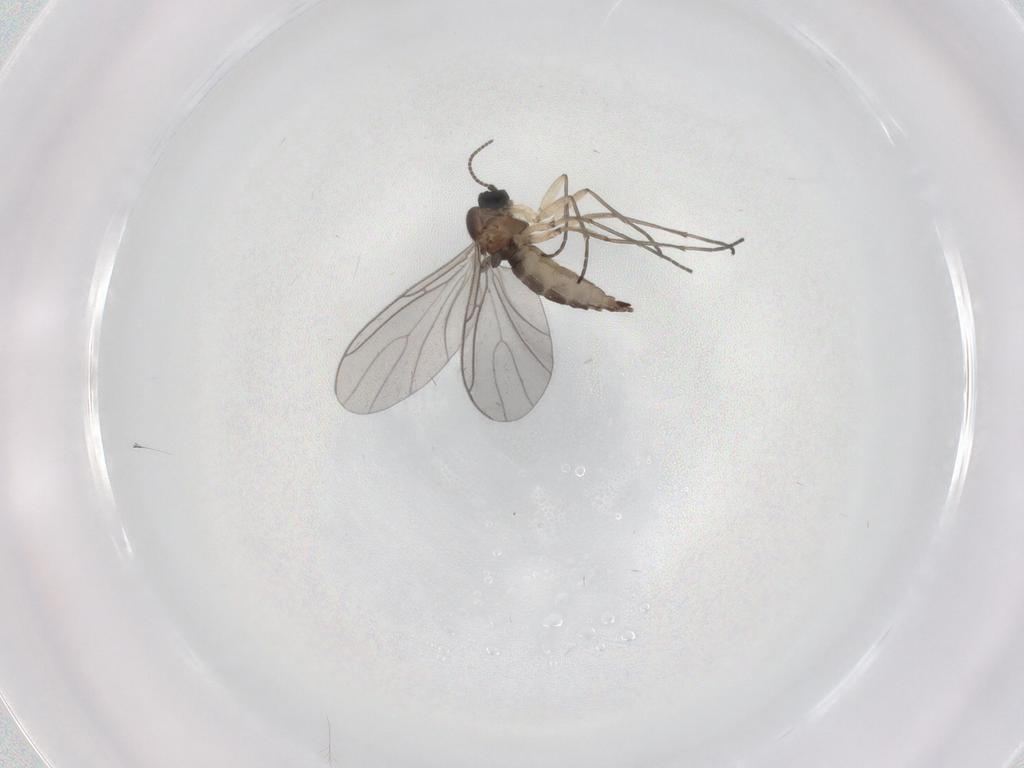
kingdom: Animalia
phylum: Arthropoda
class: Insecta
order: Diptera
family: Sciaridae
